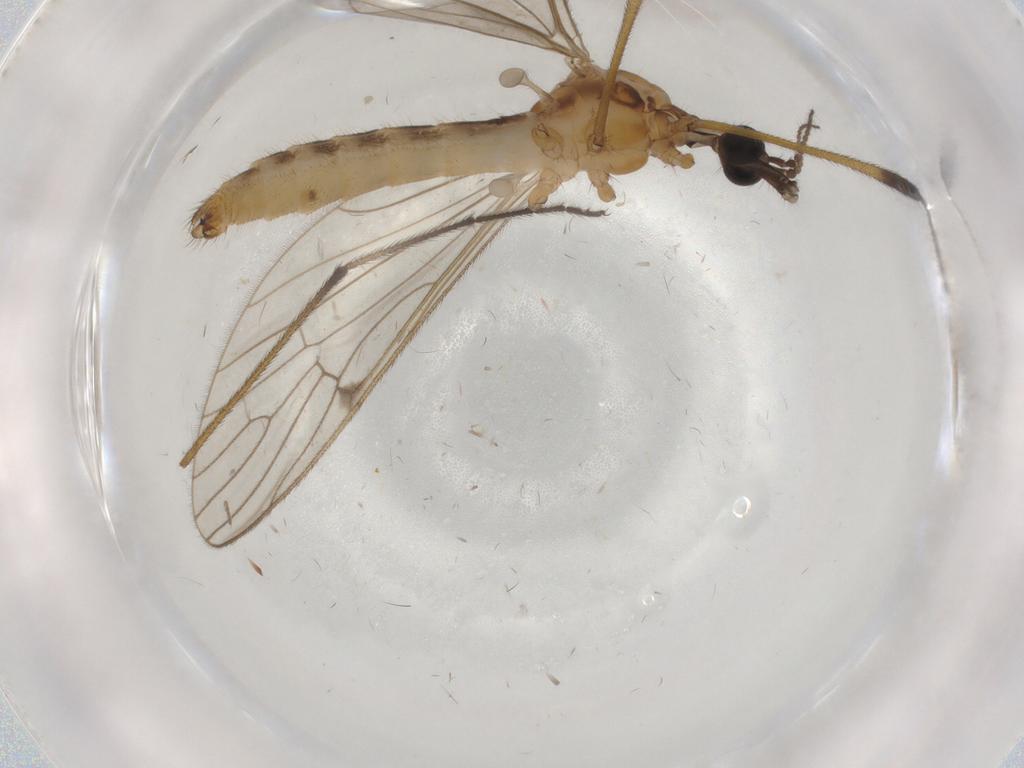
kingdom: Animalia
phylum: Arthropoda
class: Insecta
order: Diptera
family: Limoniidae
